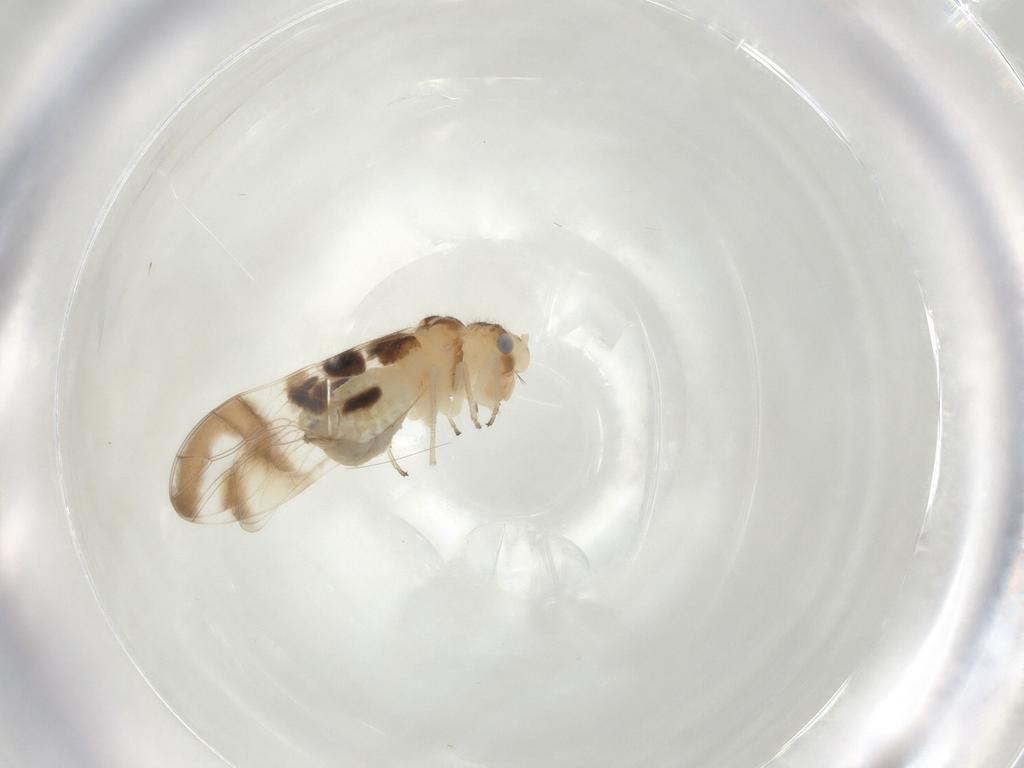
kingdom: Animalia
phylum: Arthropoda
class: Insecta
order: Psocodea
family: Stenopsocidae
